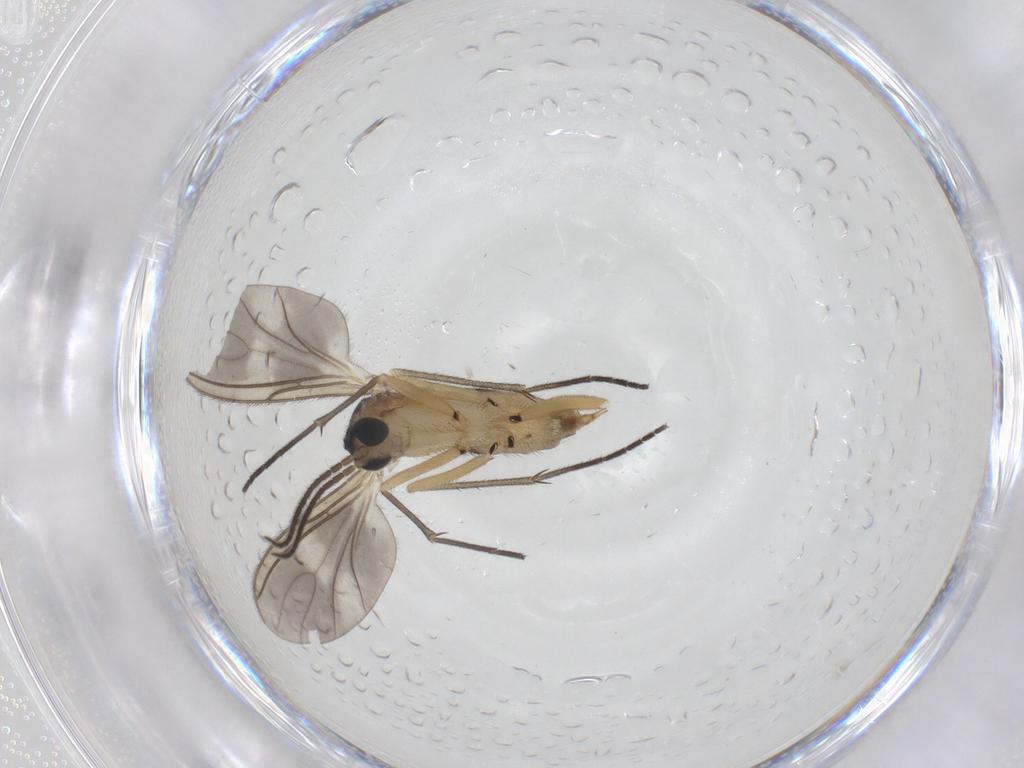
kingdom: Animalia
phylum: Arthropoda
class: Insecta
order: Diptera
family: Sciaridae
